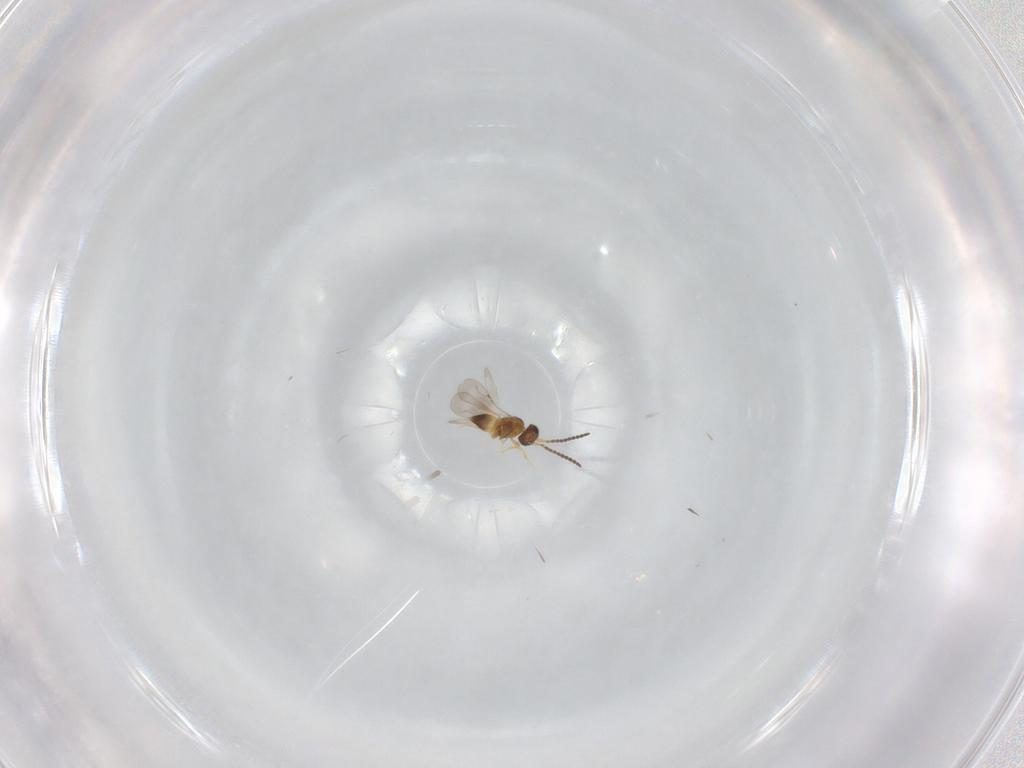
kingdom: Animalia
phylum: Arthropoda
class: Insecta
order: Hymenoptera
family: Ceraphronidae
